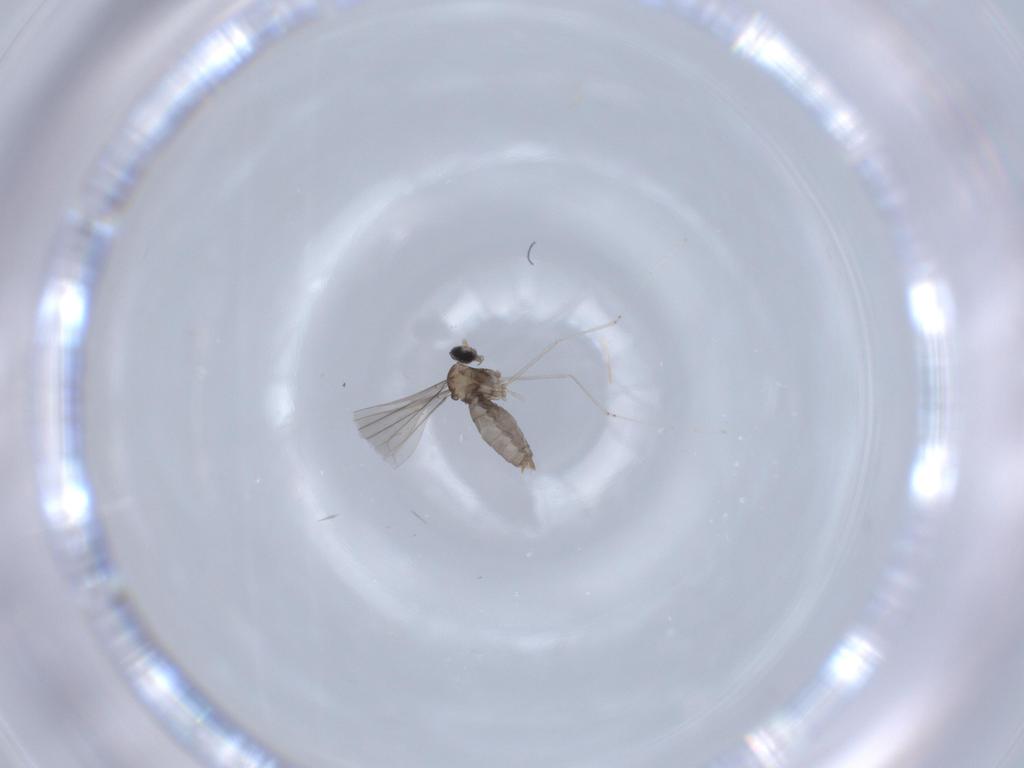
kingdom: Animalia
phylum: Arthropoda
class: Insecta
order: Diptera
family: Cecidomyiidae
